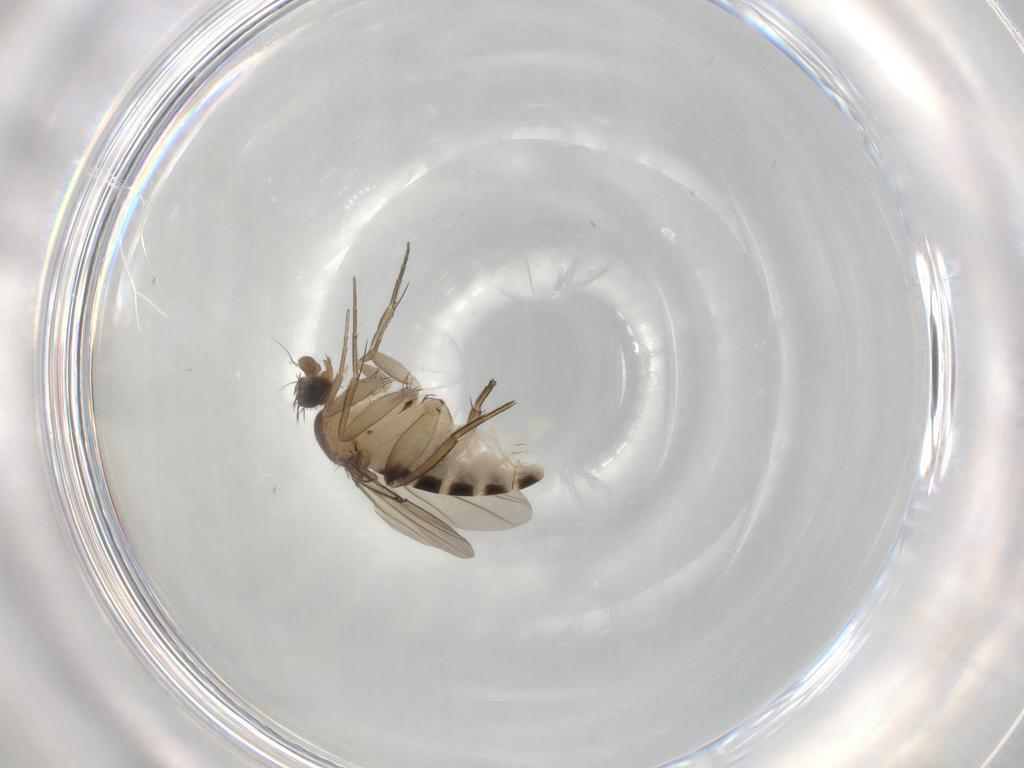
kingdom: Animalia
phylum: Arthropoda
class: Insecta
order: Diptera
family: Phoridae
